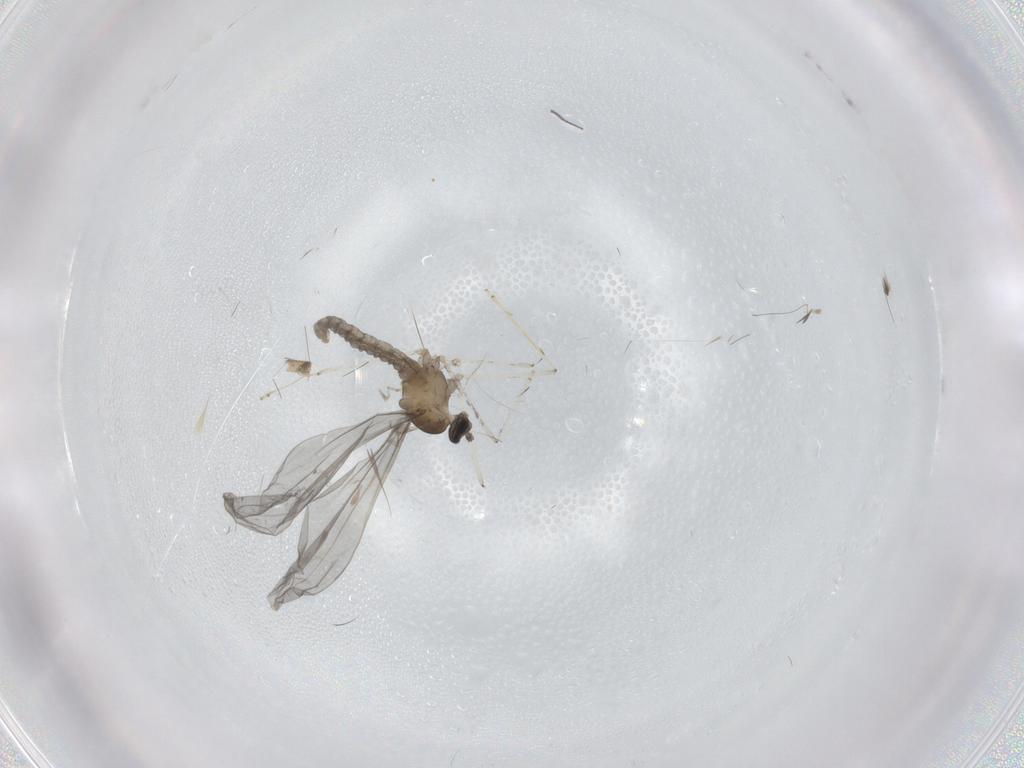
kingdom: Animalia
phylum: Arthropoda
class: Insecta
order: Diptera
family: Cecidomyiidae
